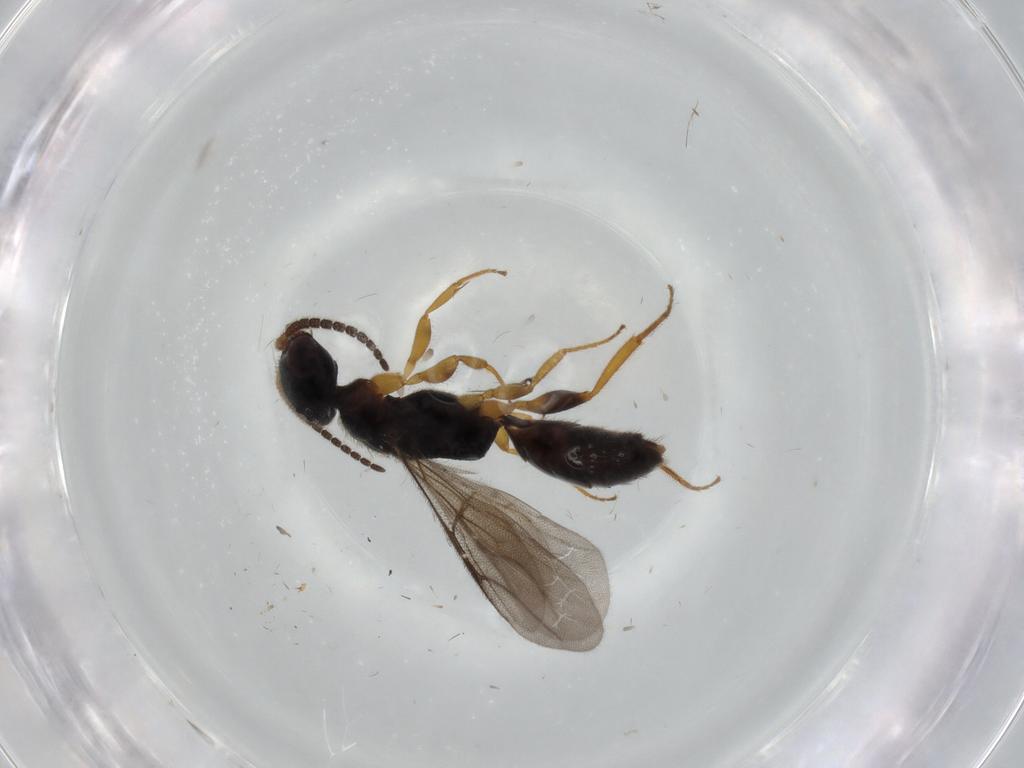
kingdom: Animalia
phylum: Arthropoda
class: Insecta
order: Hymenoptera
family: Bethylidae
